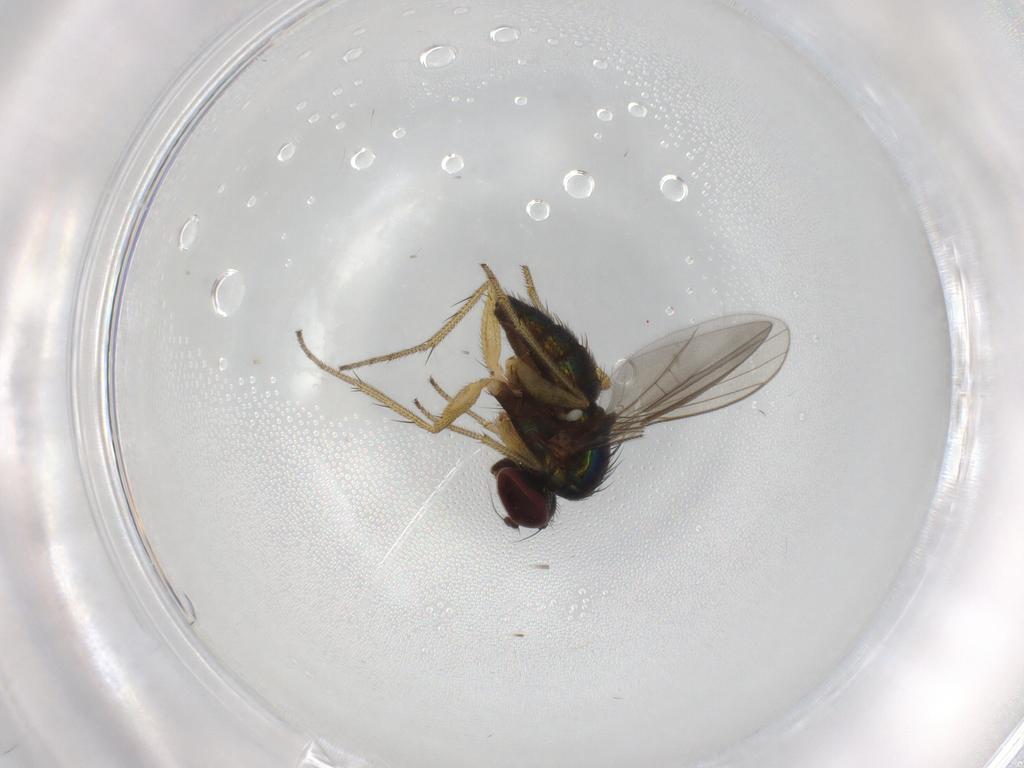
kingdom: Animalia
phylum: Arthropoda
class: Insecta
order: Diptera
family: Dolichopodidae
